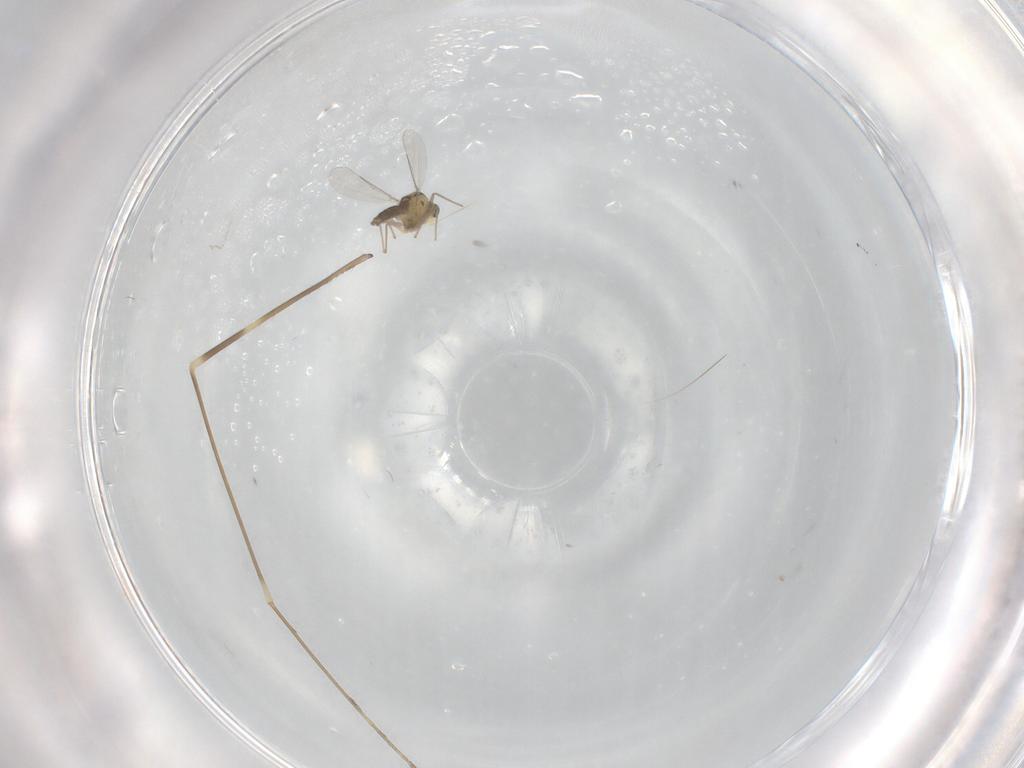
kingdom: Animalia
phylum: Arthropoda
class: Insecta
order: Diptera
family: Limoniidae
